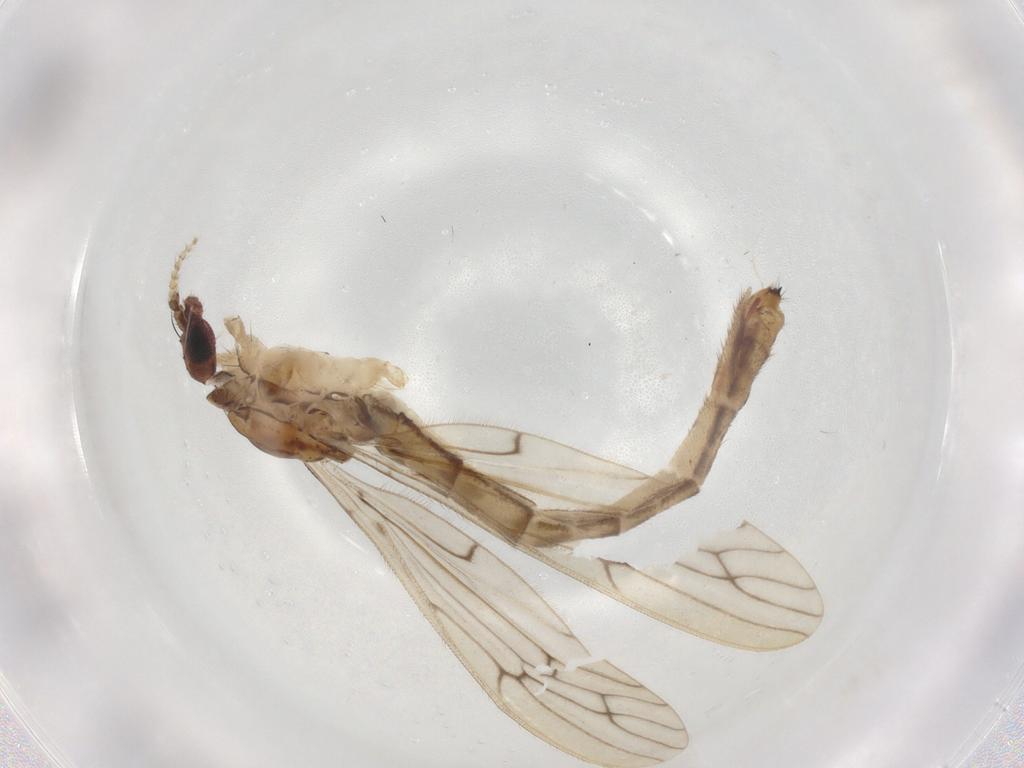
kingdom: Animalia
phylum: Arthropoda
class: Insecta
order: Diptera
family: Limoniidae
